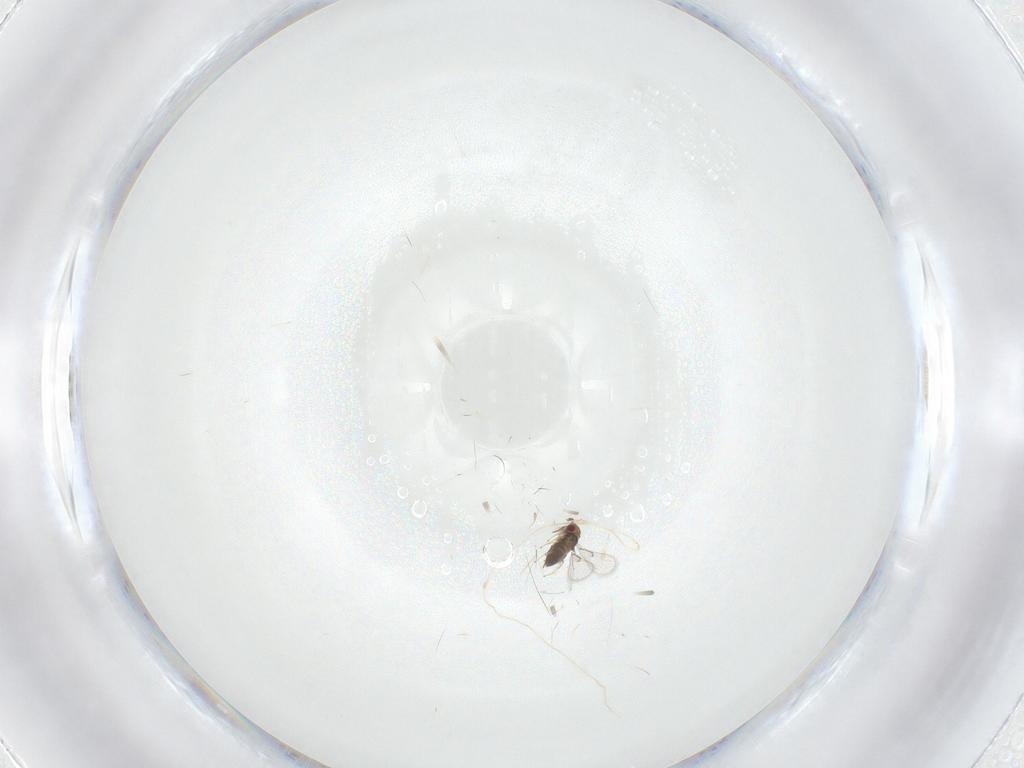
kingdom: Animalia
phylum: Arthropoda
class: Insecta
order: Hymenoptera
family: Trichogrammatidae
